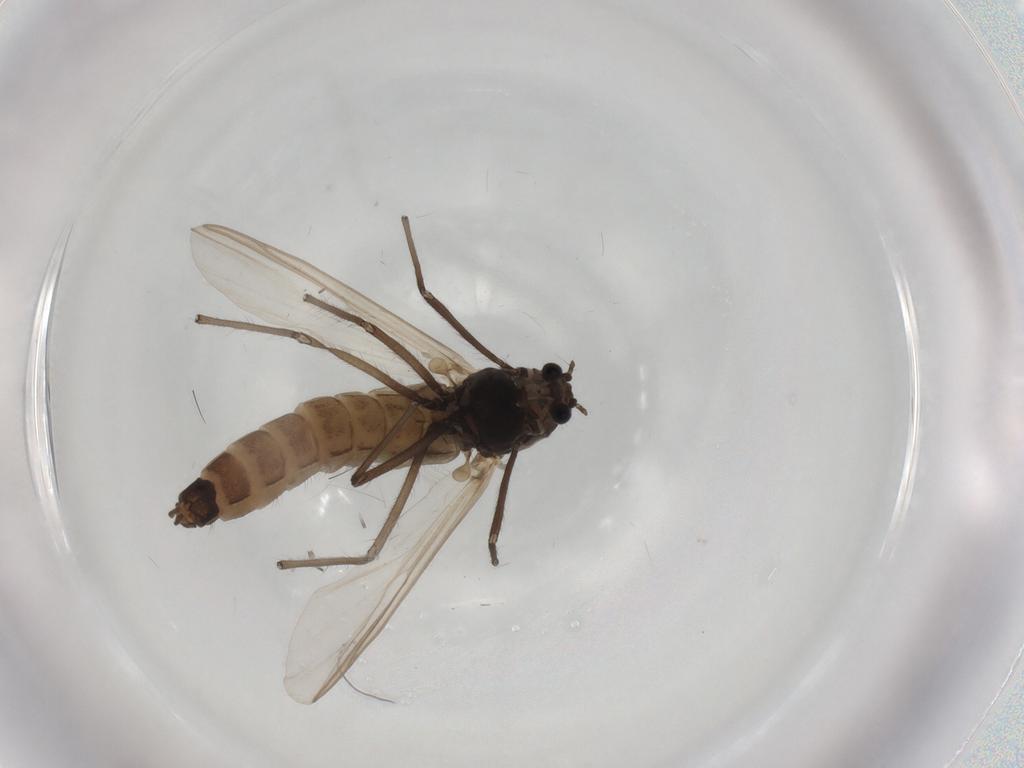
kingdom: Animalia
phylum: Arthropoda
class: Insecta
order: Diptera
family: Chironomidae
